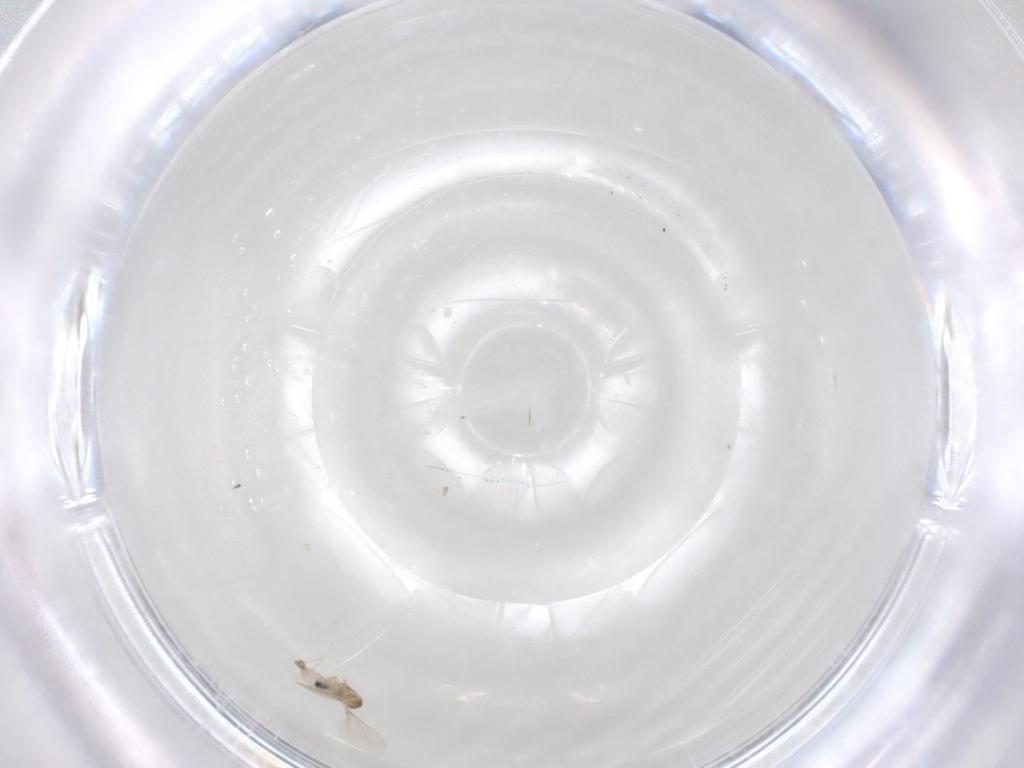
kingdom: Animalia
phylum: Arthropoda
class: Insecta
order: Diptera
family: Cecidomyiidae
